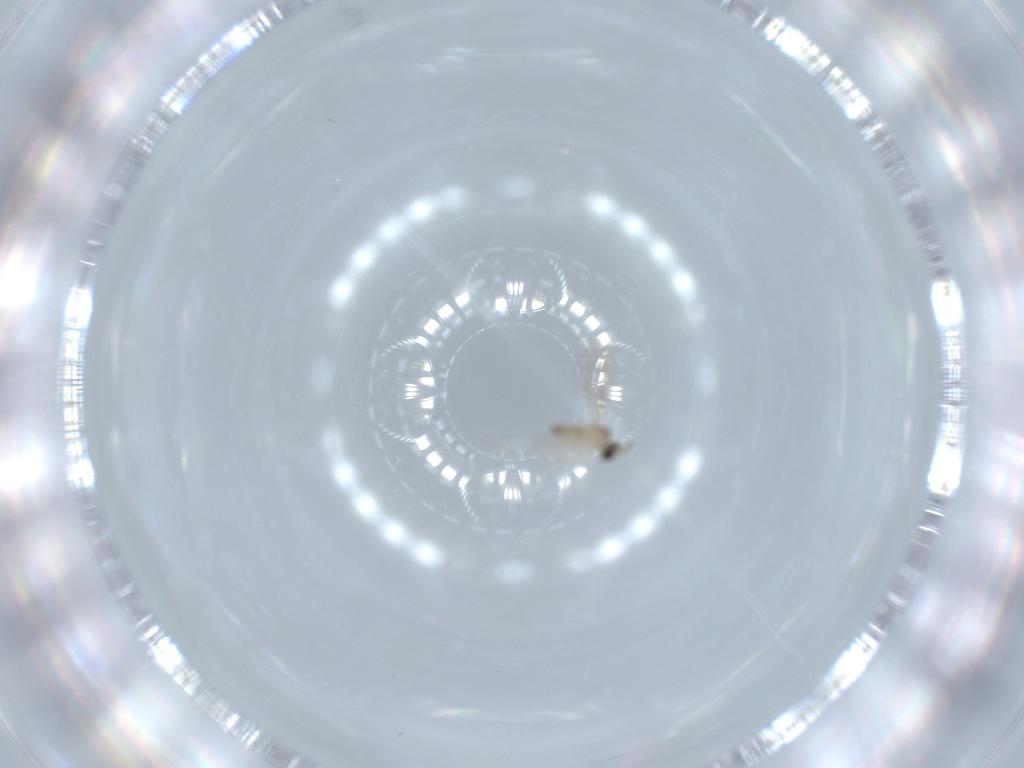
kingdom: Animalia
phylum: Arthropoda
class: Insecta
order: Diptera
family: Cecidomyiidae
